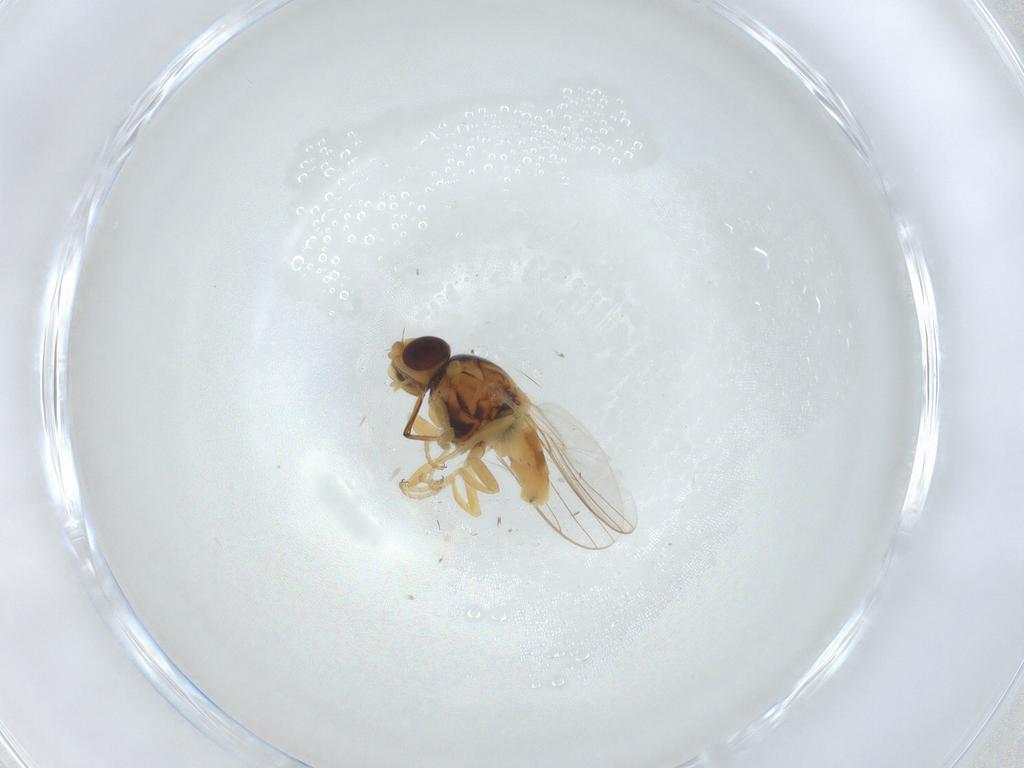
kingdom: Animalia
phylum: Arthropoda
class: Insecta
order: Diptera
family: Chloropidae
